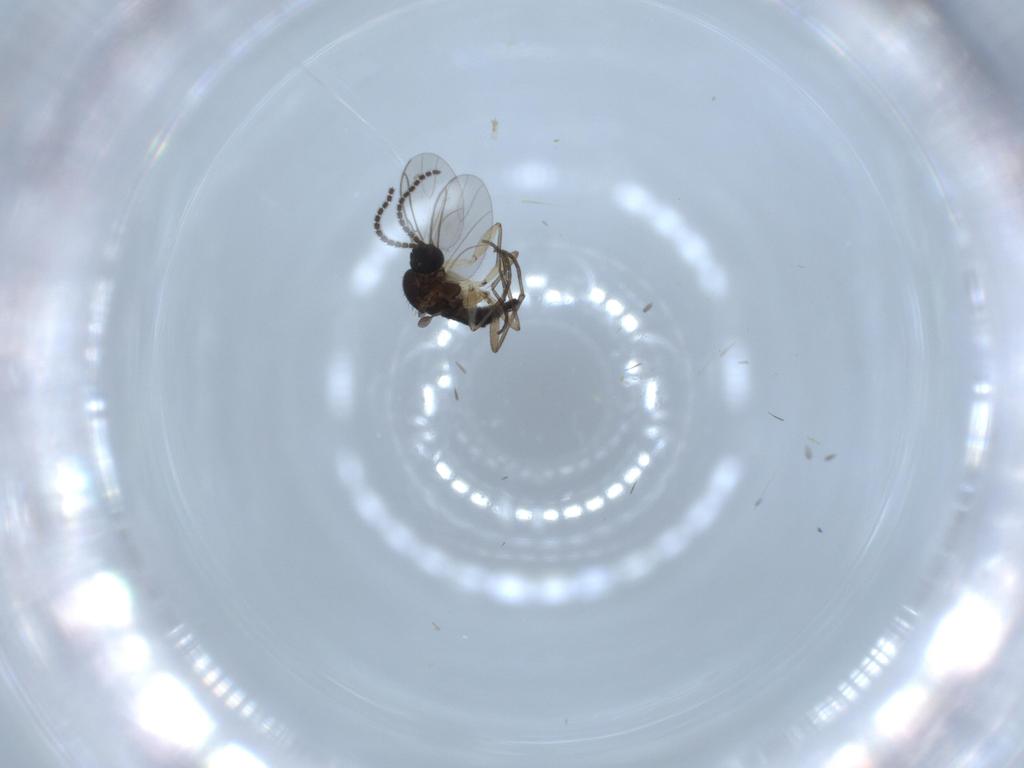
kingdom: Animalia
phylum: Arthropoda
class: Insecta
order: Diptera
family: Sciaridae
